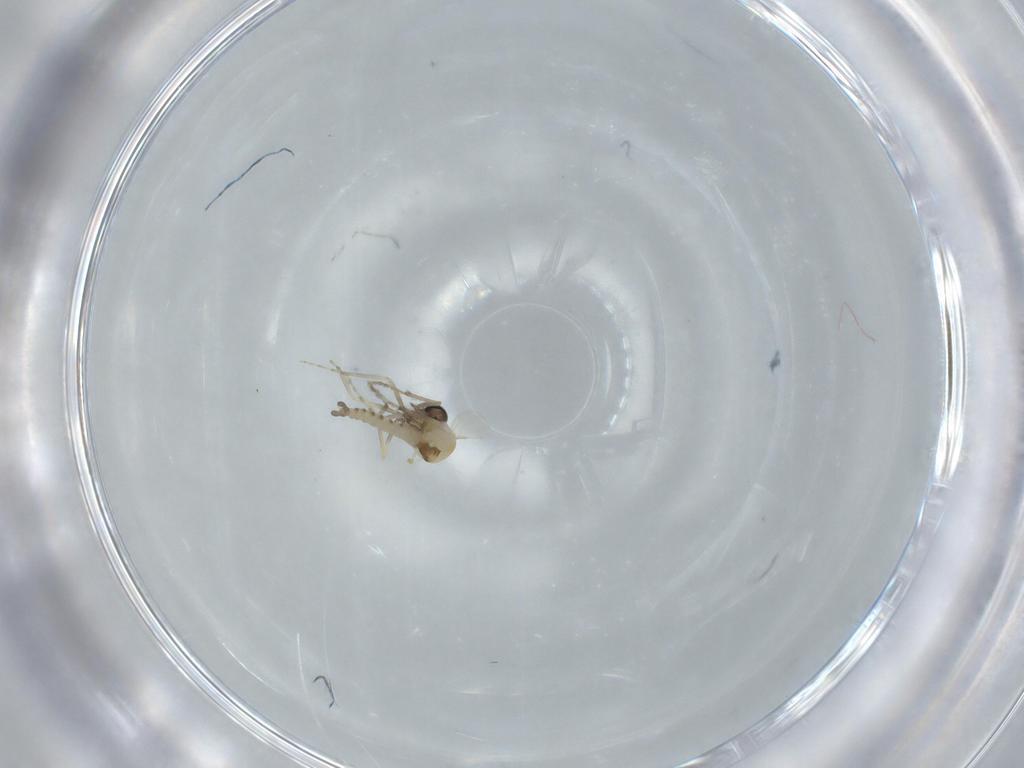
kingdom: Animalia
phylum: Arthropoda
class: Insecta
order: Diptera
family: Ceratopogonidae
